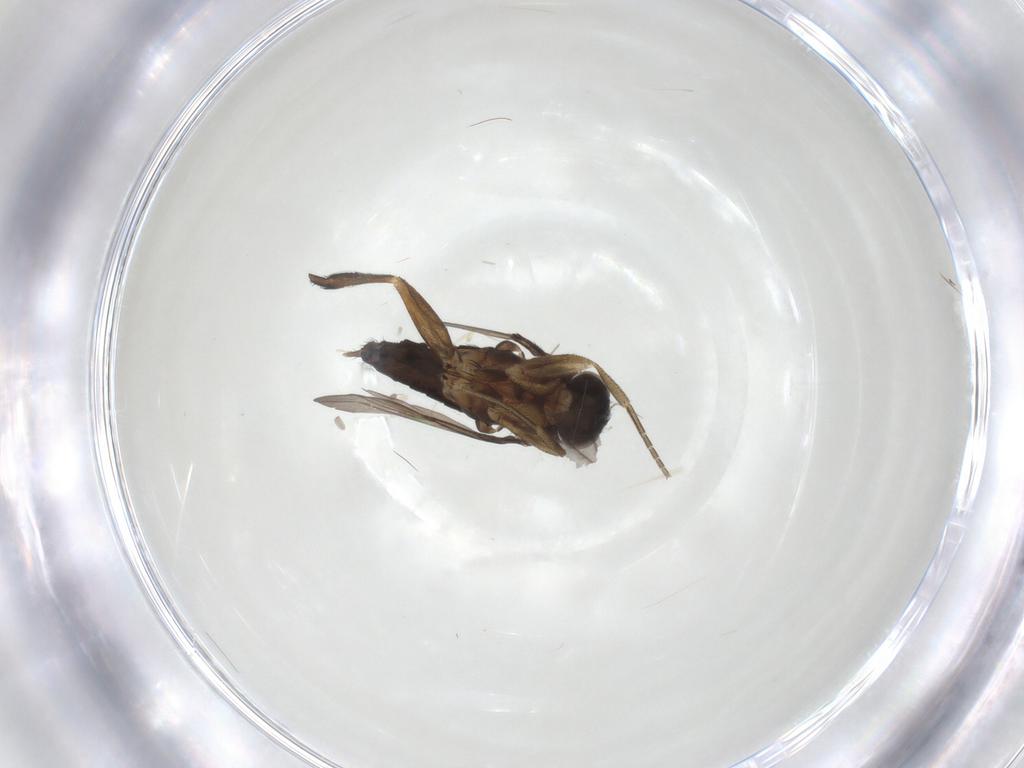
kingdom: Animalia
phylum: Arthropoda
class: Insecta
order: Diptera
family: Phoridae
